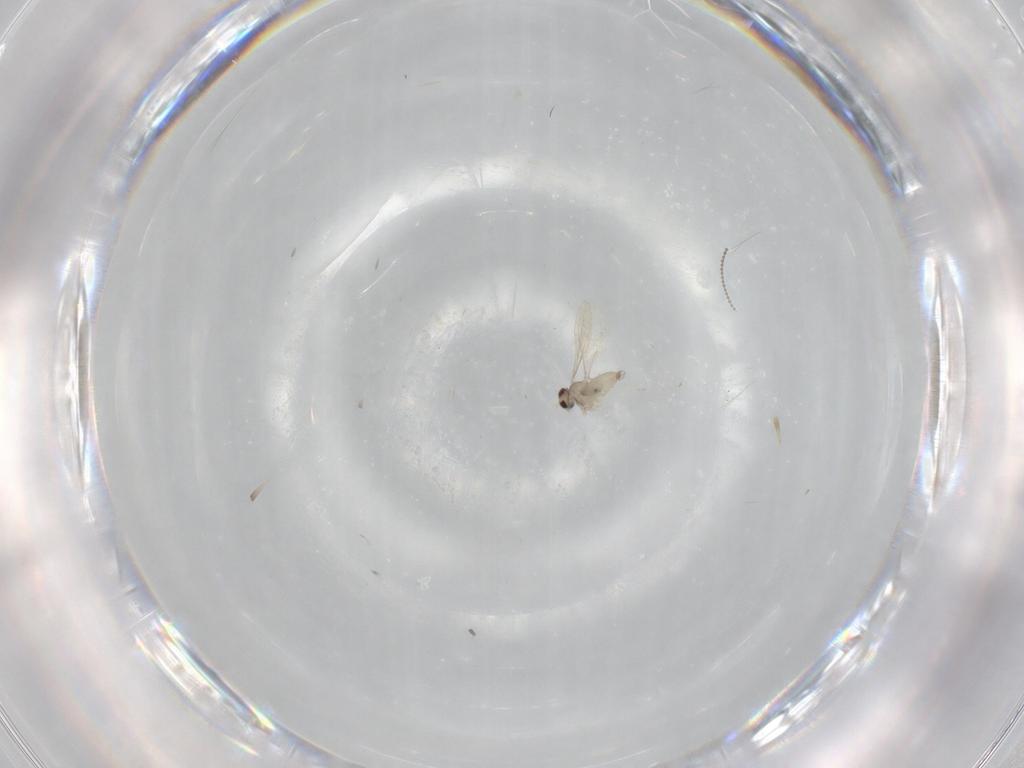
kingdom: Animalia
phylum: Arthropoda
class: Insecta
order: Diptera
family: Cecidomyiidae
